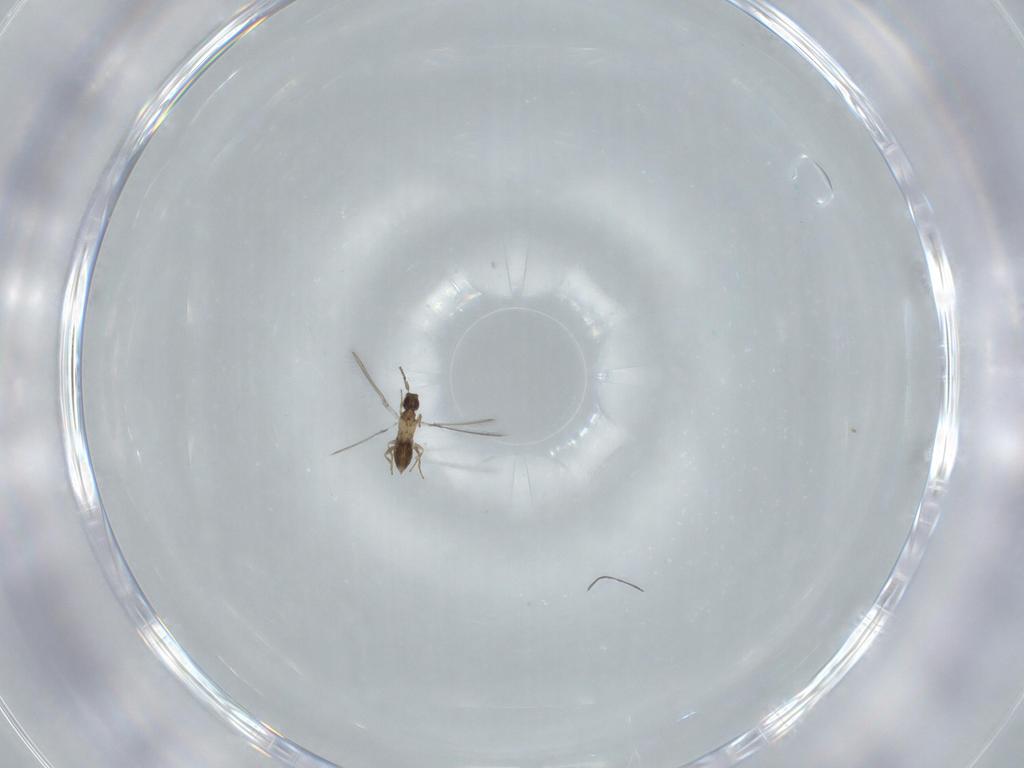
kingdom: Animalia
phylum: Arthropoda
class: Insecta
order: Hymenoptera
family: Mymaridae
